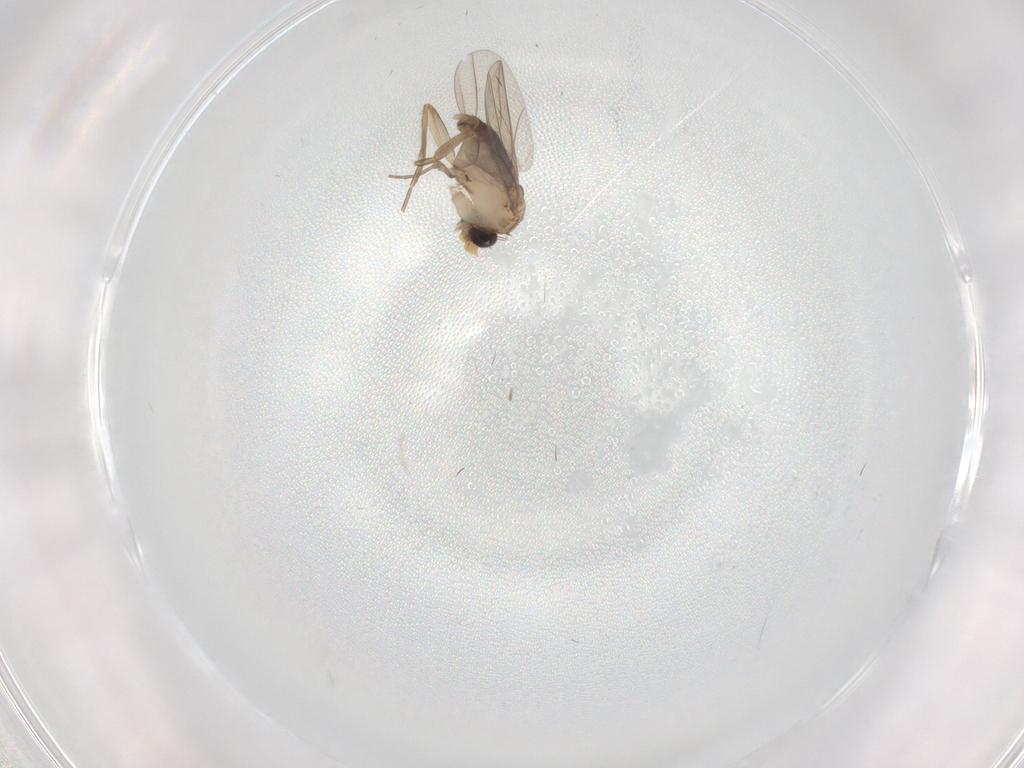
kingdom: Animalia
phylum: Arthropoda
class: Insecta
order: Diptera
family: Phoridae
